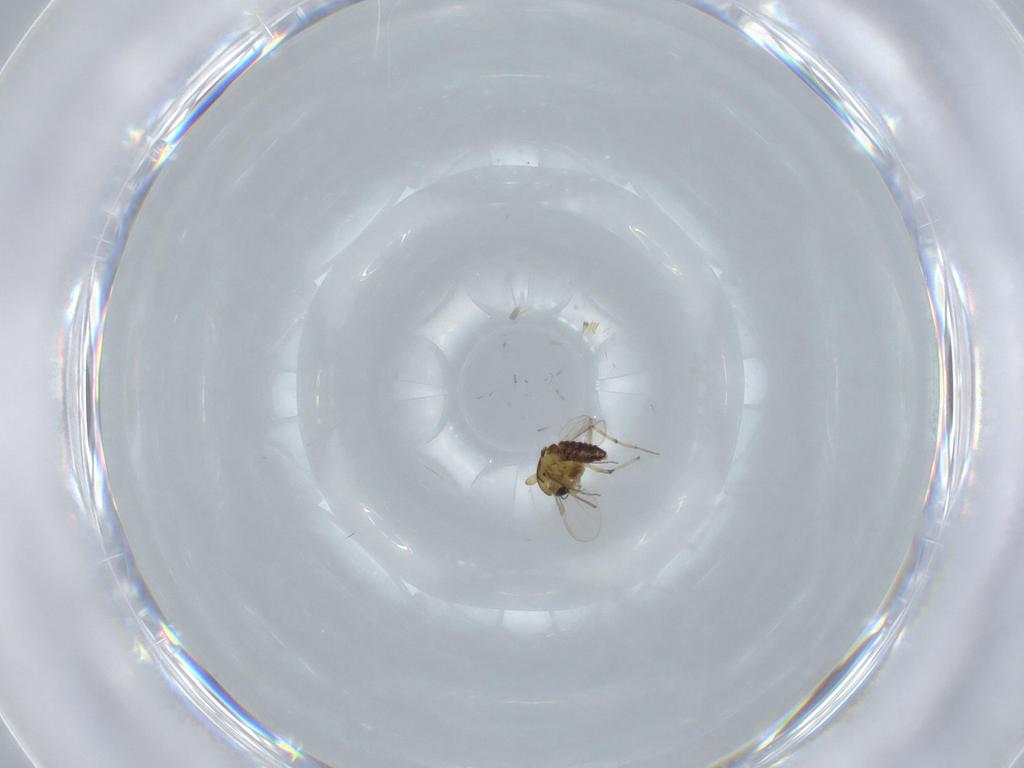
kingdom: Animalia
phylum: Arthropoda
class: Insecta
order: Diptera
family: Chironomidae
